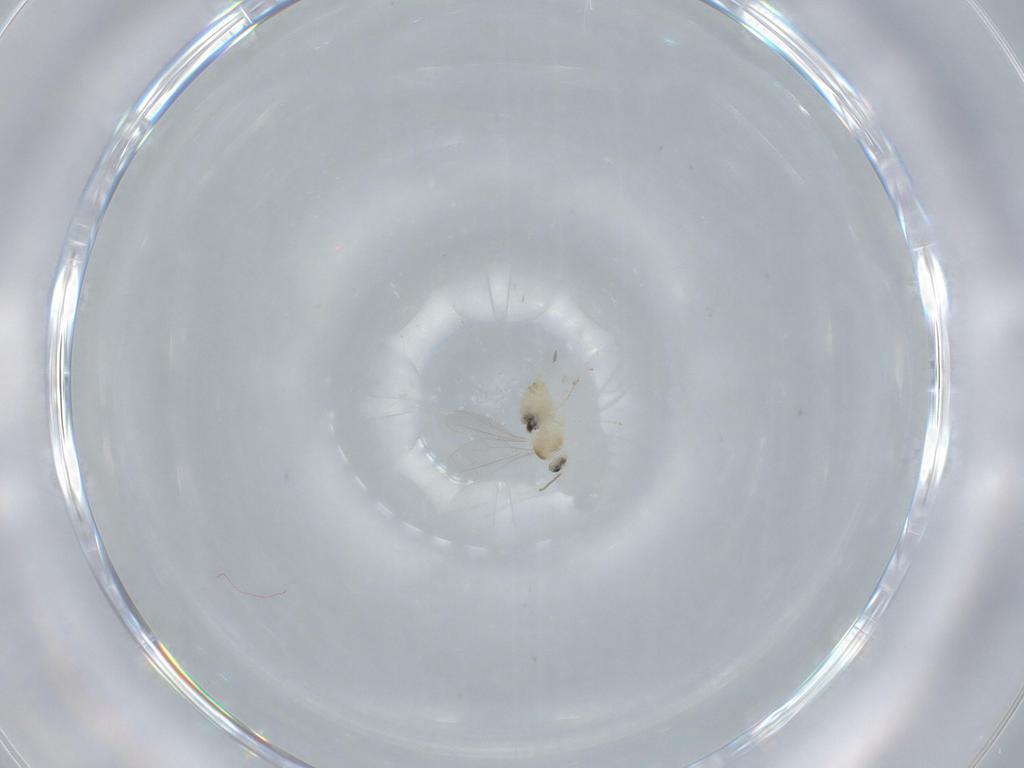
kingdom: Animalia
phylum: Arthropoda
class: Insecta
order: Diptera
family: Cecidomyiidae
